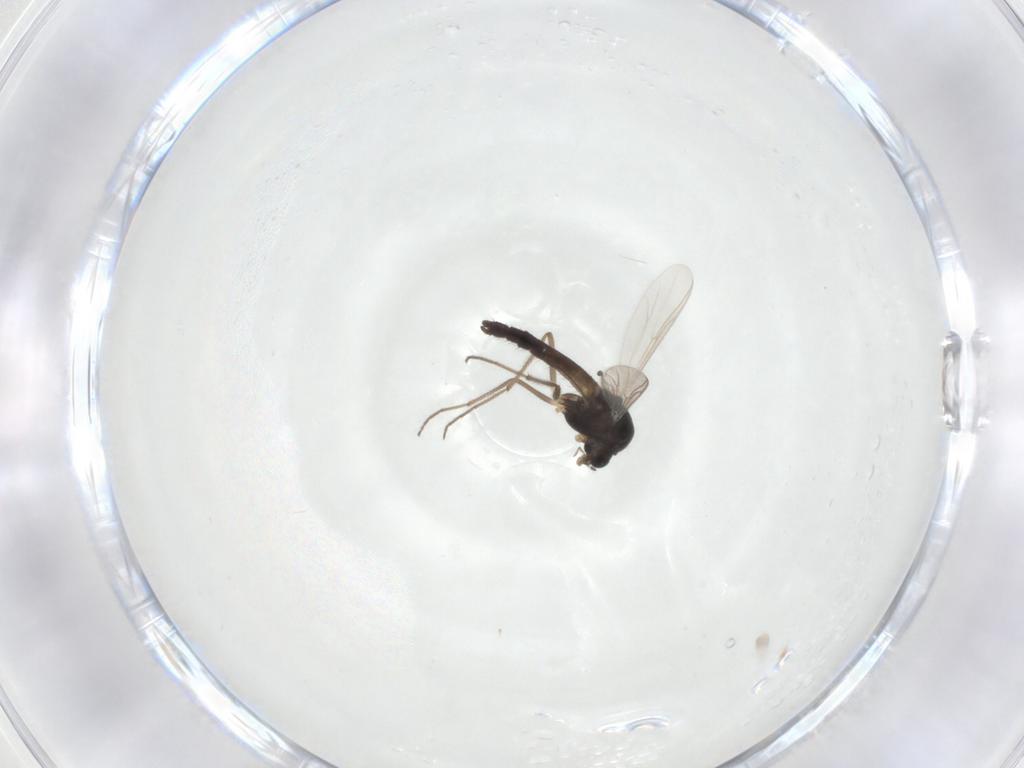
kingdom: Animalia
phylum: Arthropoda
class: Insecta
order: Diptera
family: Chironomidae
